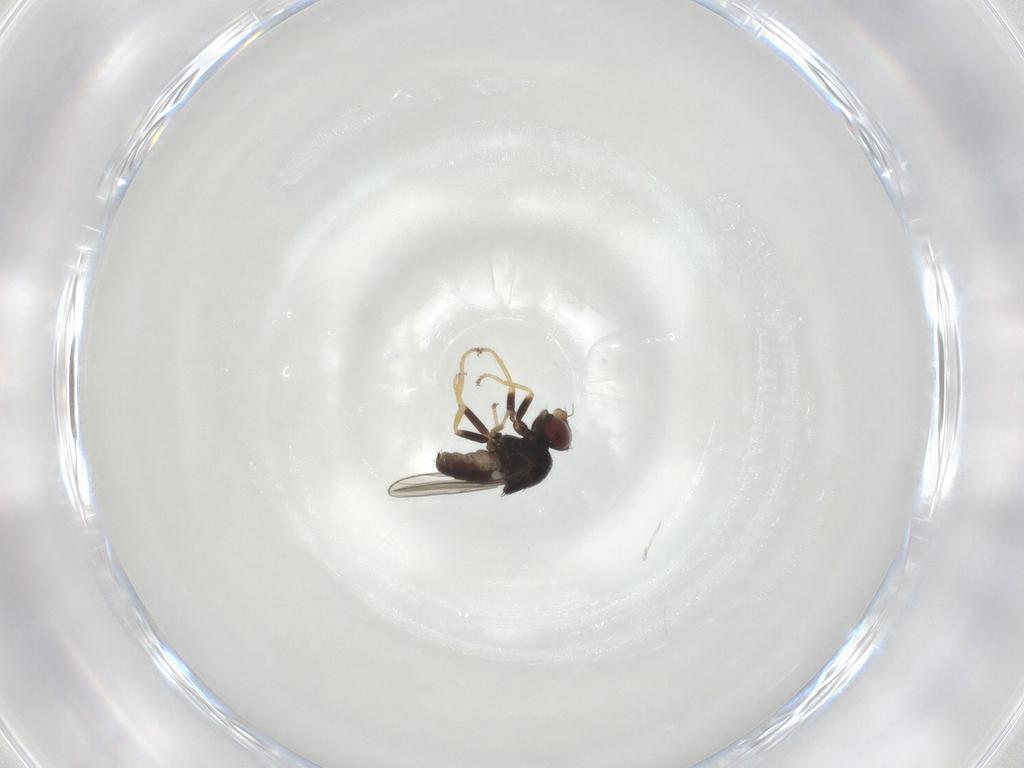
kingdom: Animalia
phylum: Arthropoda
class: Insecta
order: Diptera
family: Chloropidae
